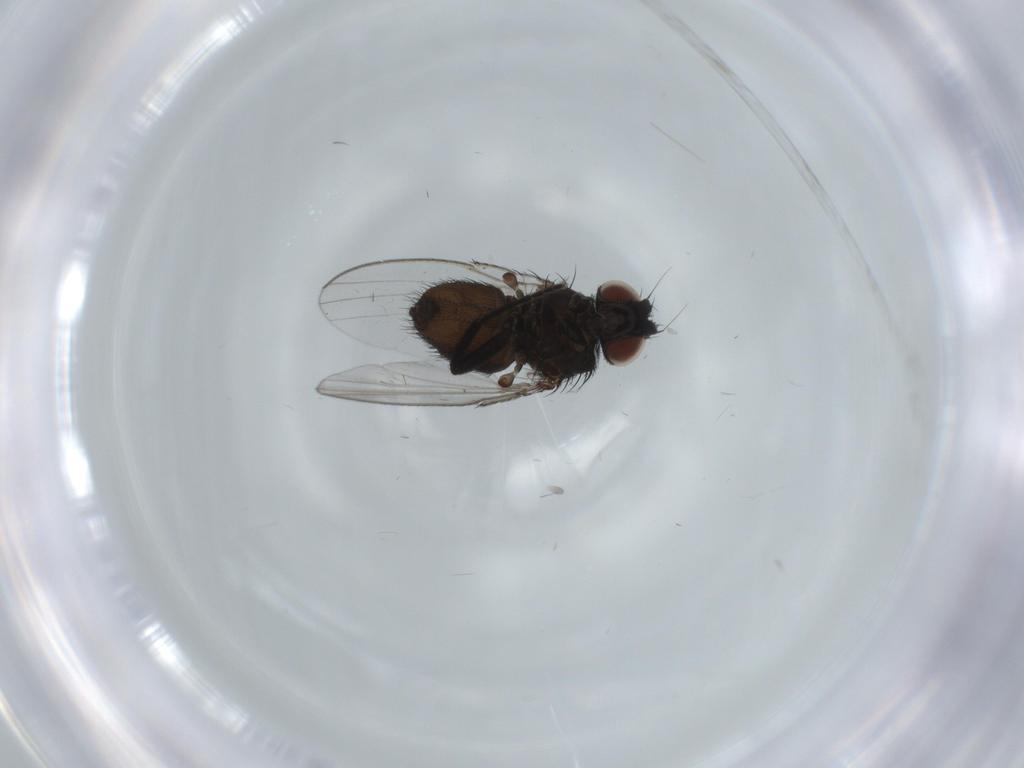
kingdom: Animalia
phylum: Arthropoda
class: Insecta
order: Diptera
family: Milichiidae
